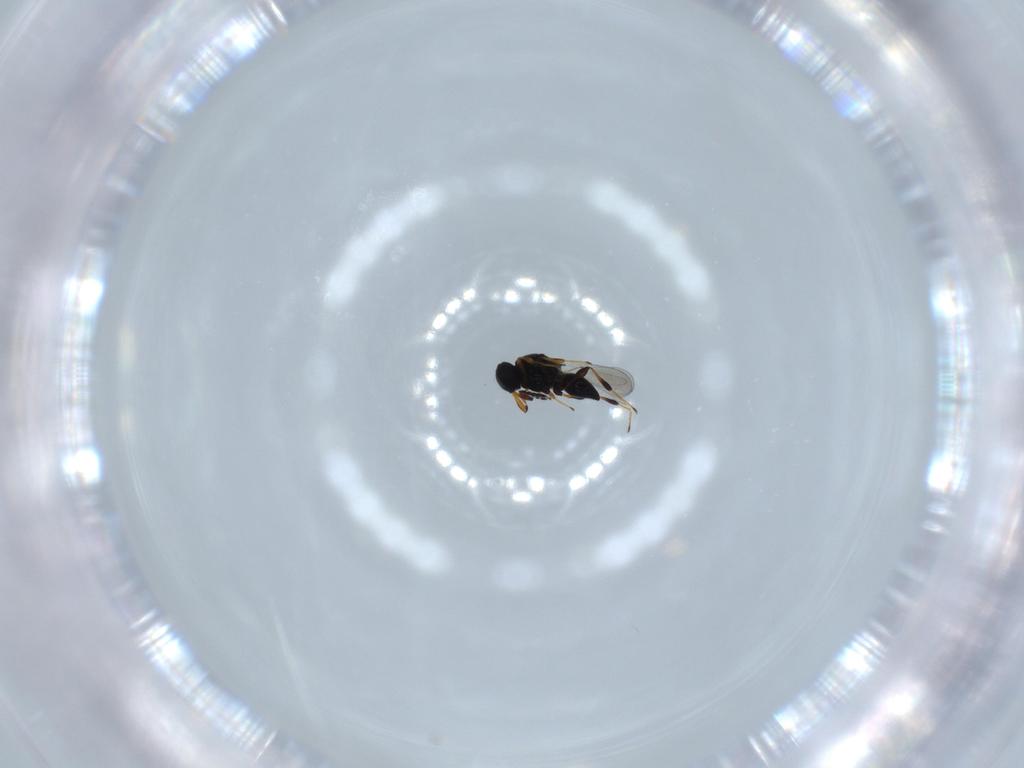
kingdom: Animalia
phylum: Arthropoda
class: Insecta
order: Hymenoptera
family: Platygastridae
